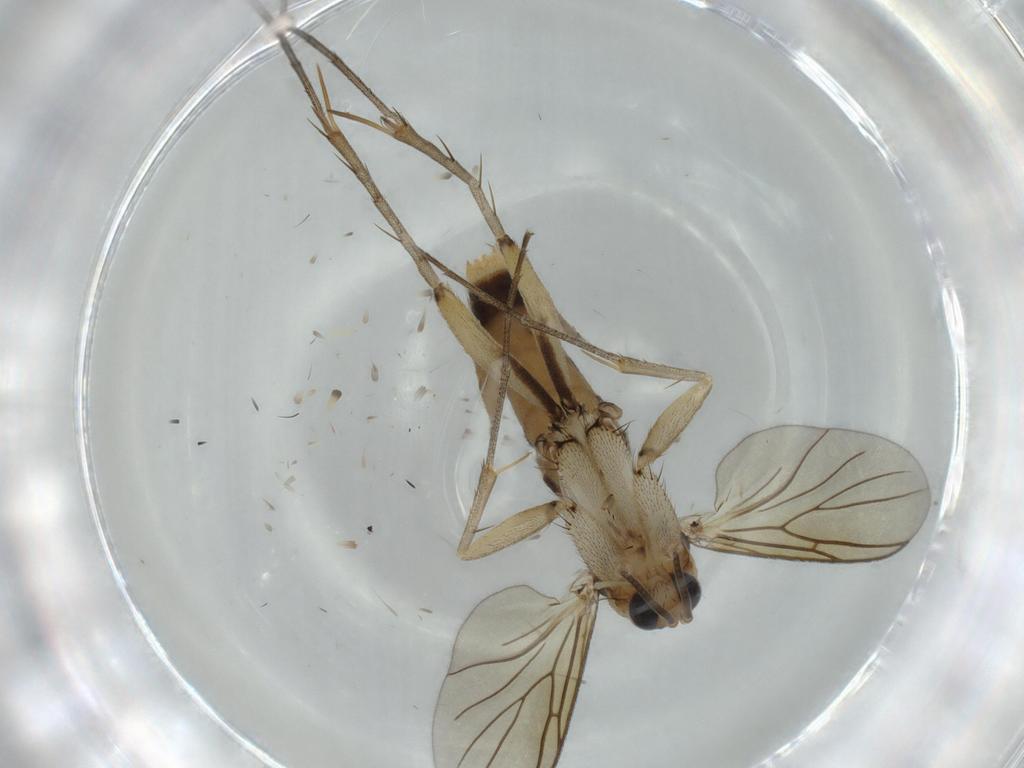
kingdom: Animalia
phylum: Arthropoda
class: Insecta
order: Diptera
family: Mycetophilidae
